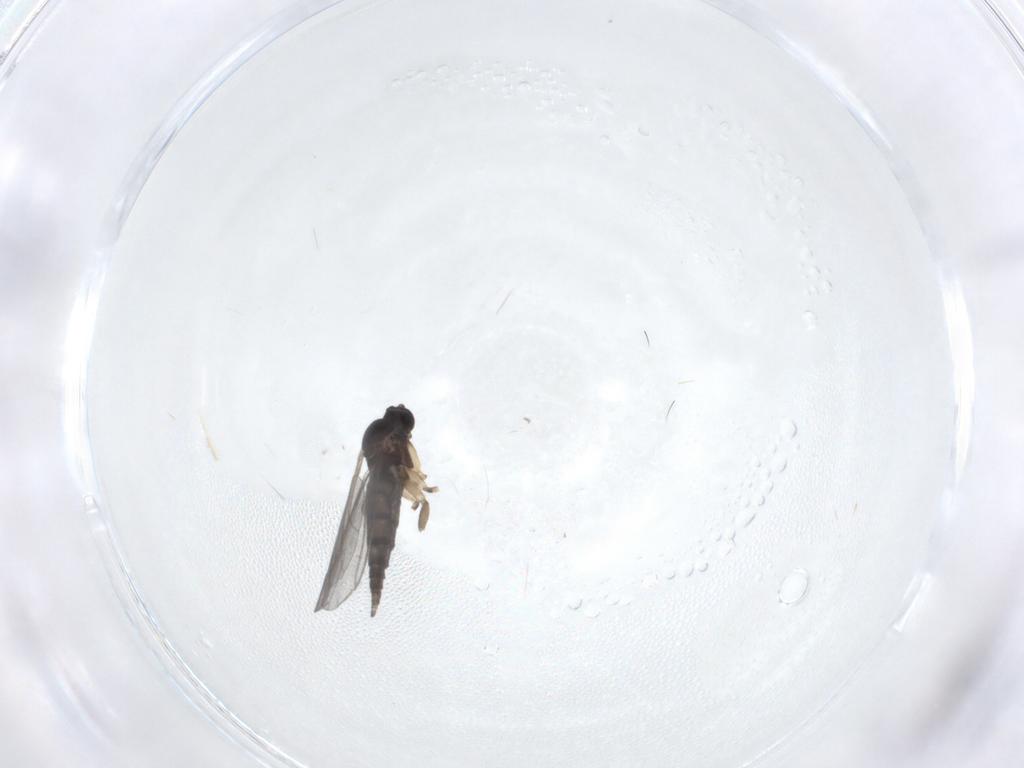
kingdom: Animalia
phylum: Arthropoda
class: Insecta
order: Diptera
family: Sciaridae
